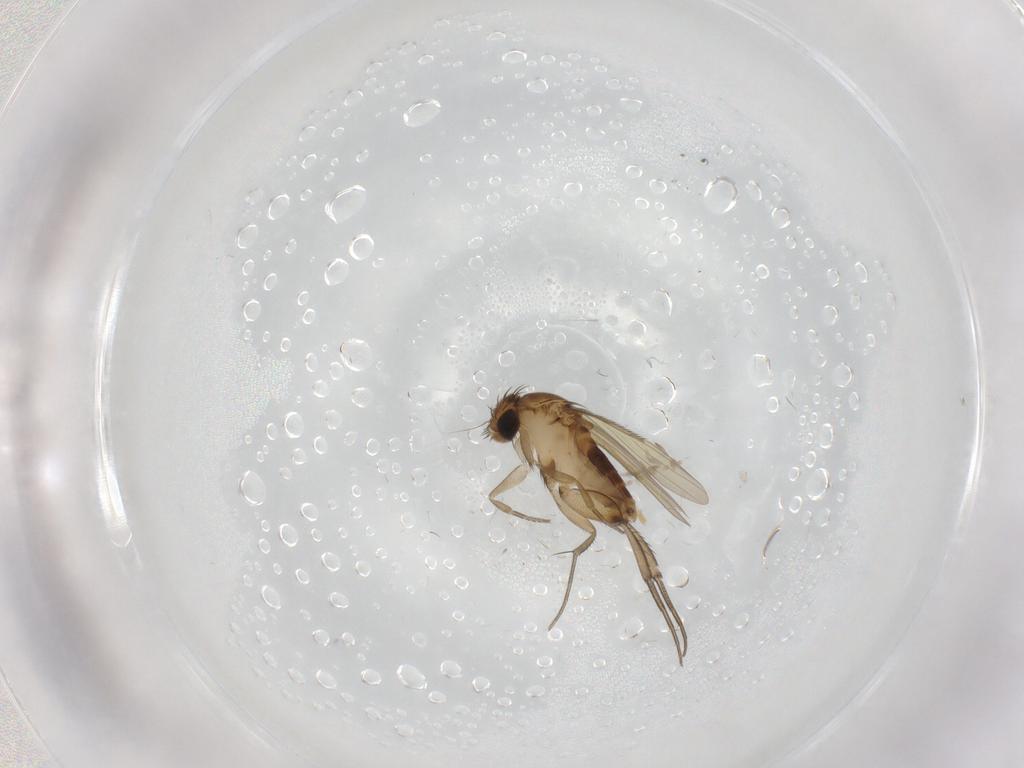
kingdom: Animalia
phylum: Arthropoda
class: Insecta
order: Diptera
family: Phoridae
